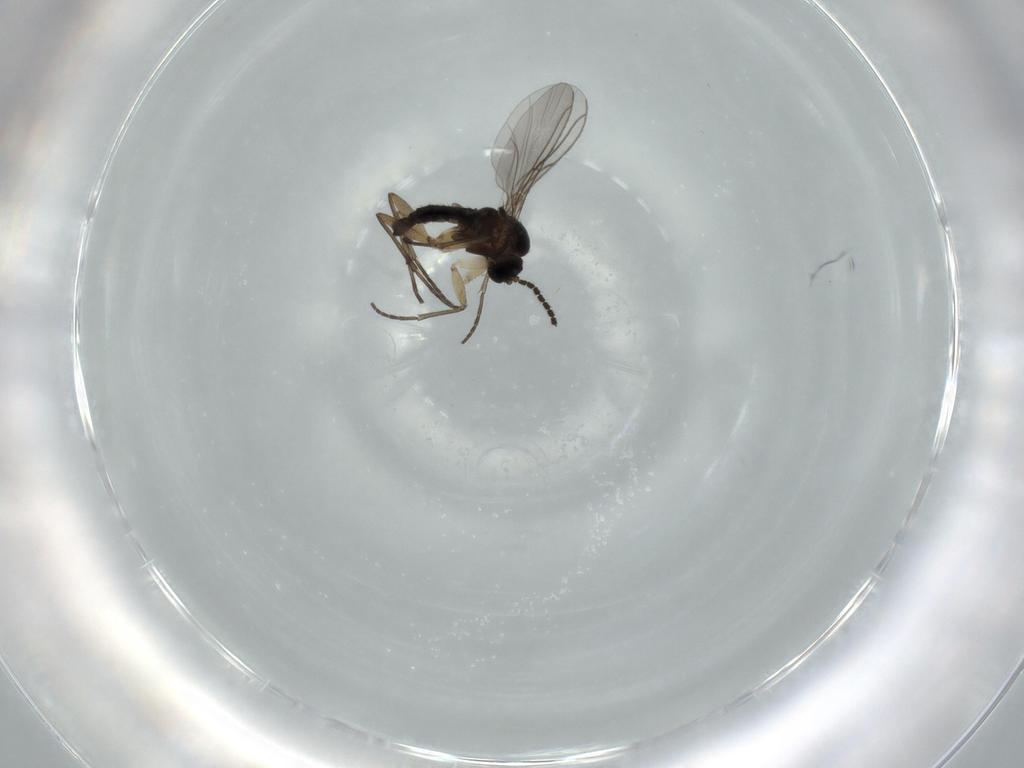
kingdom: Animalia
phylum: Arthropoda
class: Insecta
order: Diptera
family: Sciaridae
